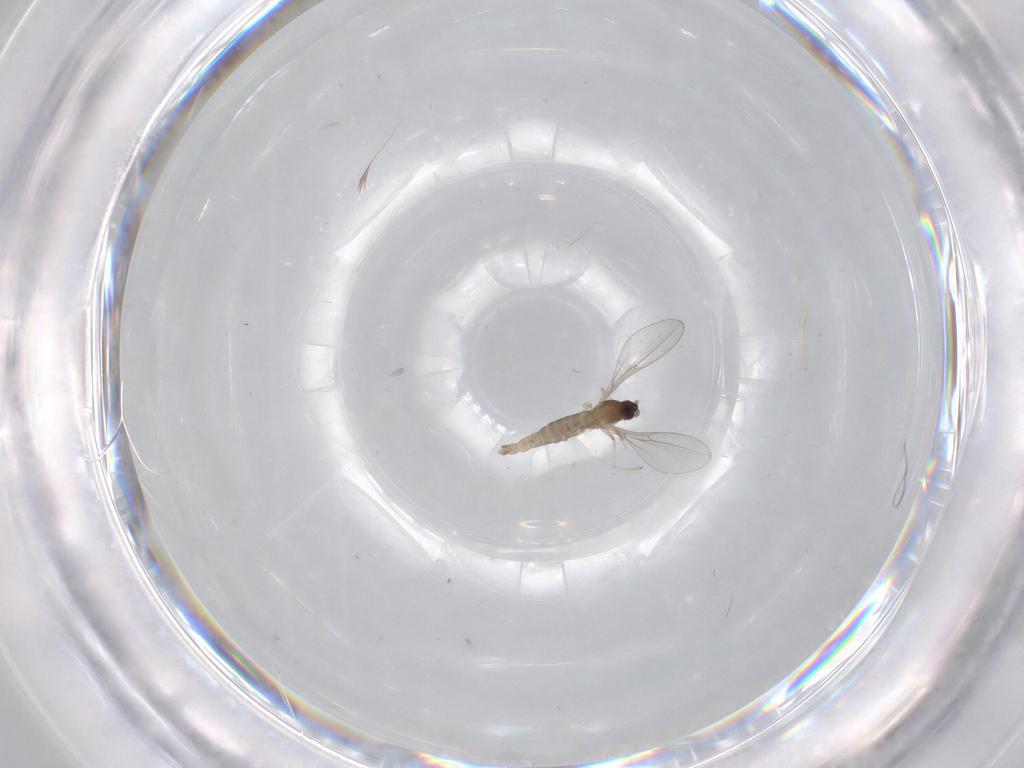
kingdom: Animalia
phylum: Arthropoda
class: Insecta
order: Diptera
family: Cecidomyiidae
